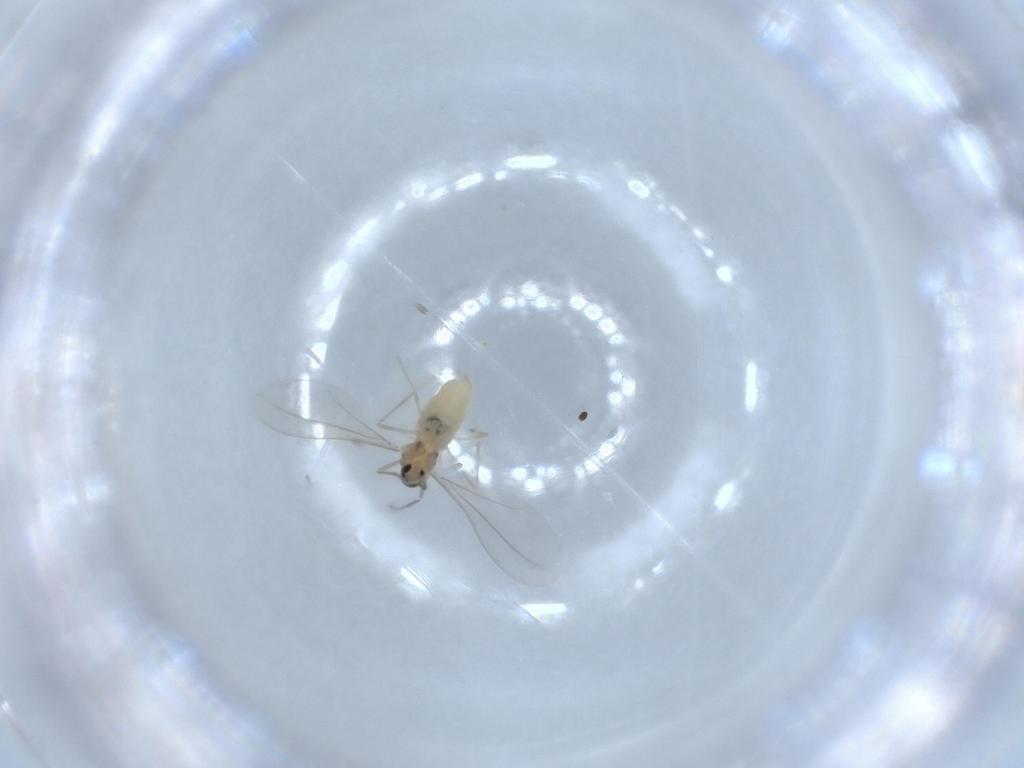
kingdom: Animalia
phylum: Arthropoda
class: Insecta
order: Diptera
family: Cecidomyiidae
